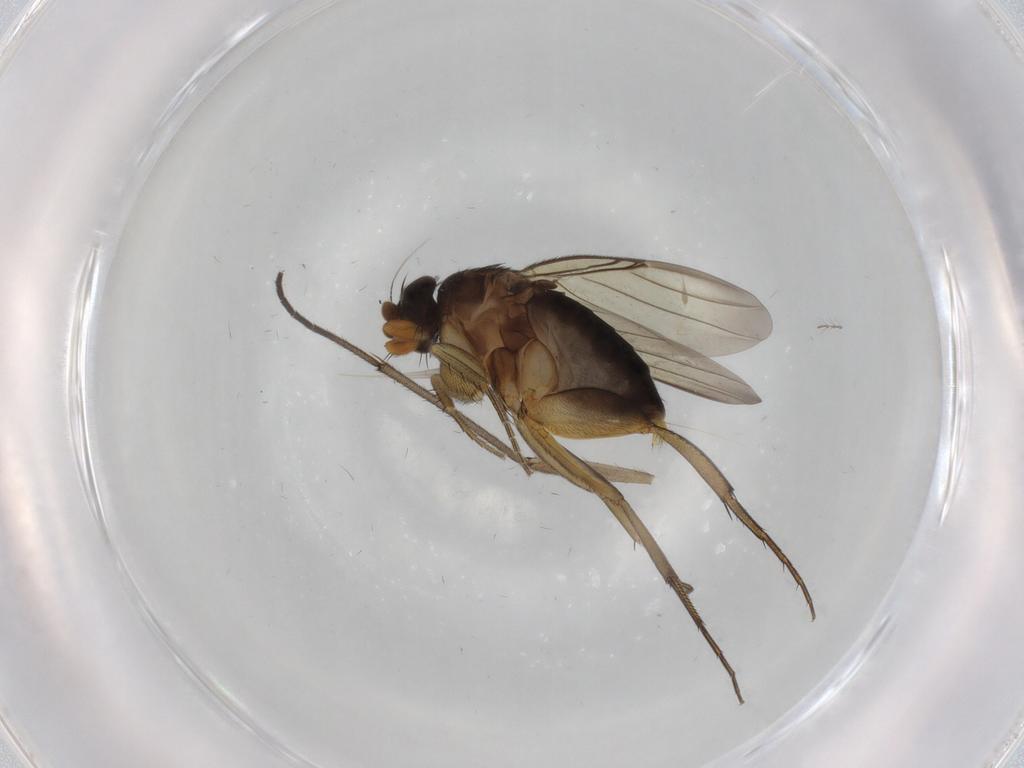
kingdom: Animalia
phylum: Arthropoda
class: Insecta
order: Diptera
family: Phoridae
